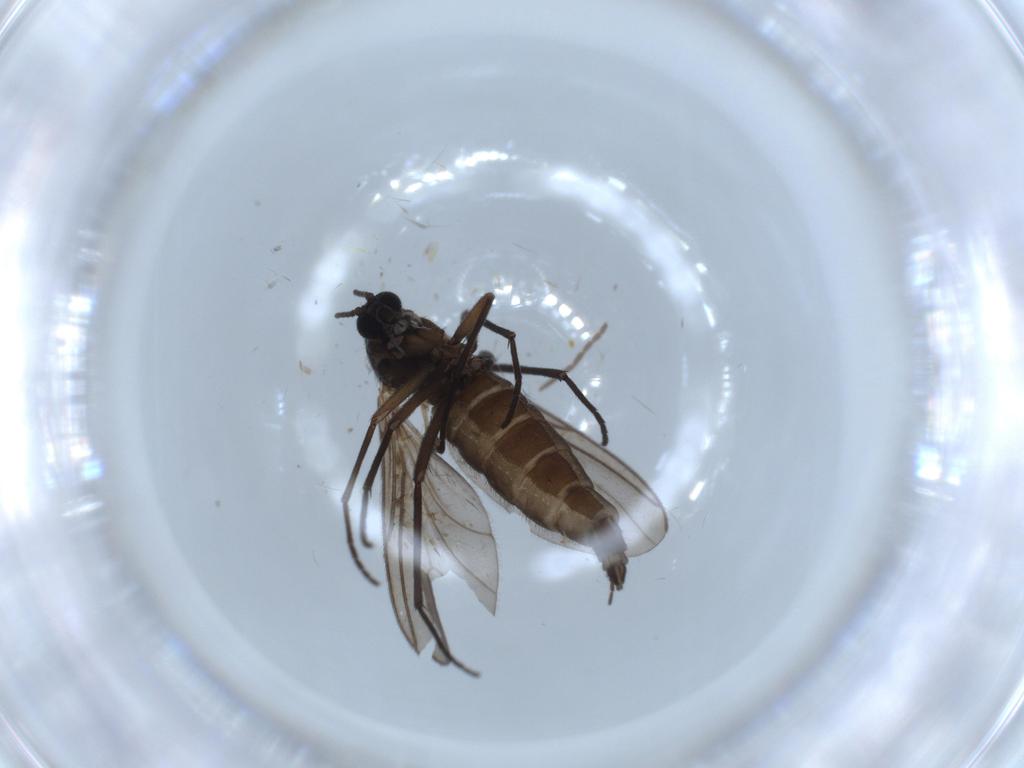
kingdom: Animalia
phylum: Arthropoda
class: Insecta
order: Diptera
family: Sciaridae
